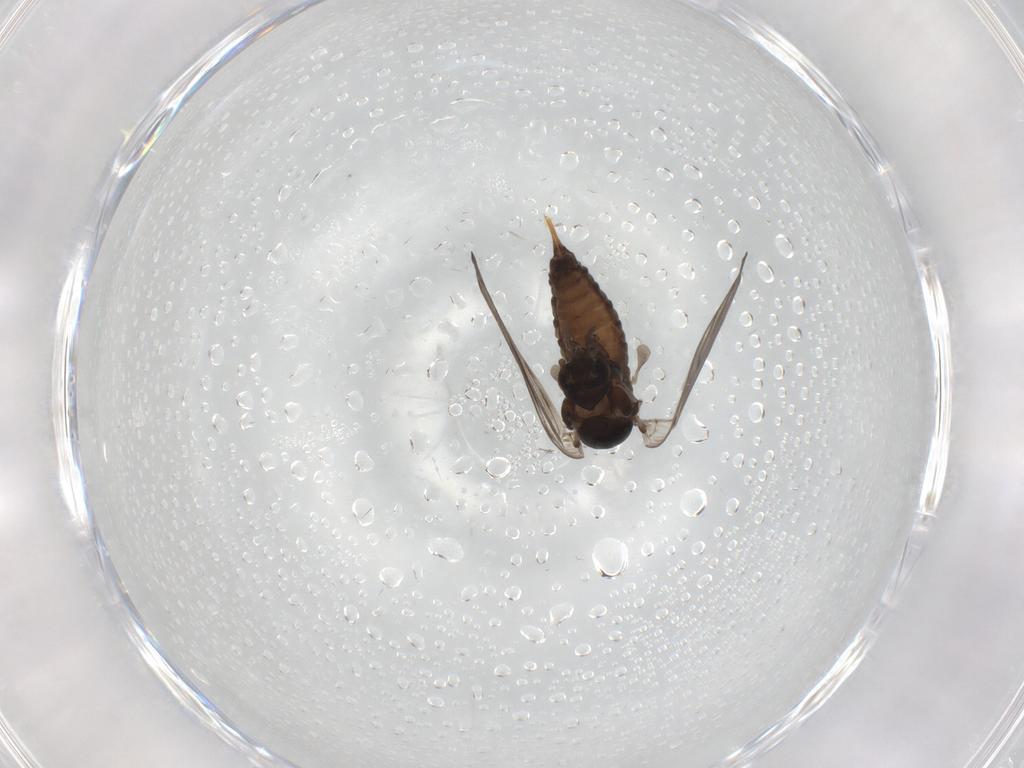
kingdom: Animalia
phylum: Arthropoda
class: Insecta
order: Diptera
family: Psychodidae
